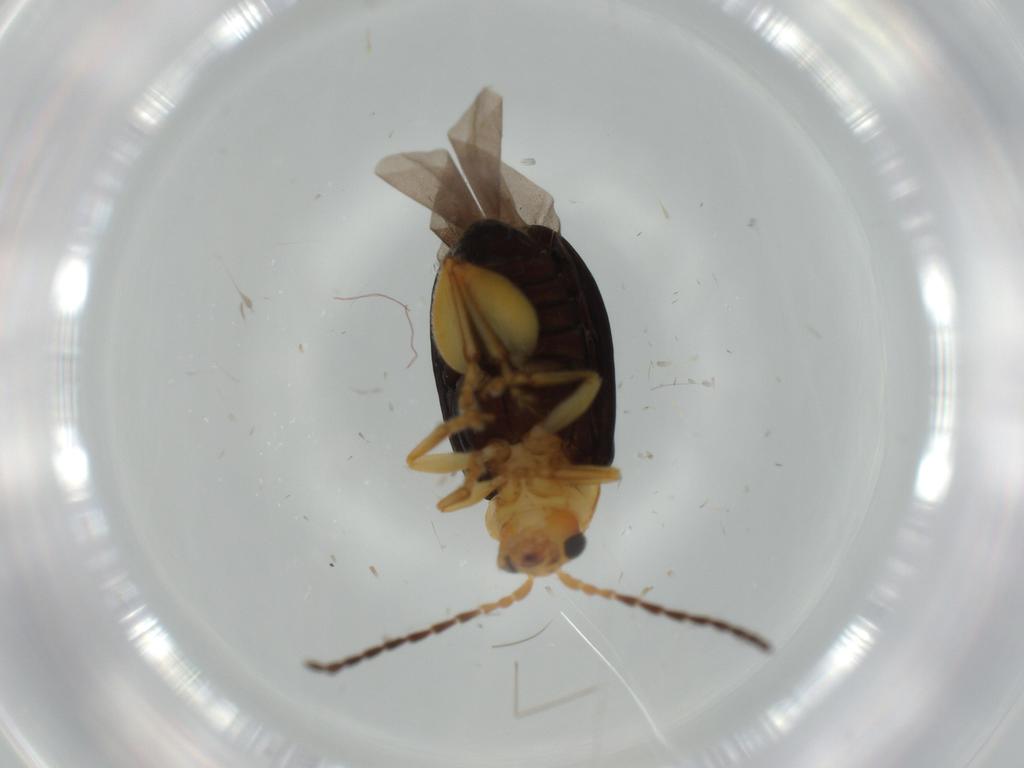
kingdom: Animalia
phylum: Arthropoda
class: Insecta
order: Coleoptera
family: Chrysomelidae
